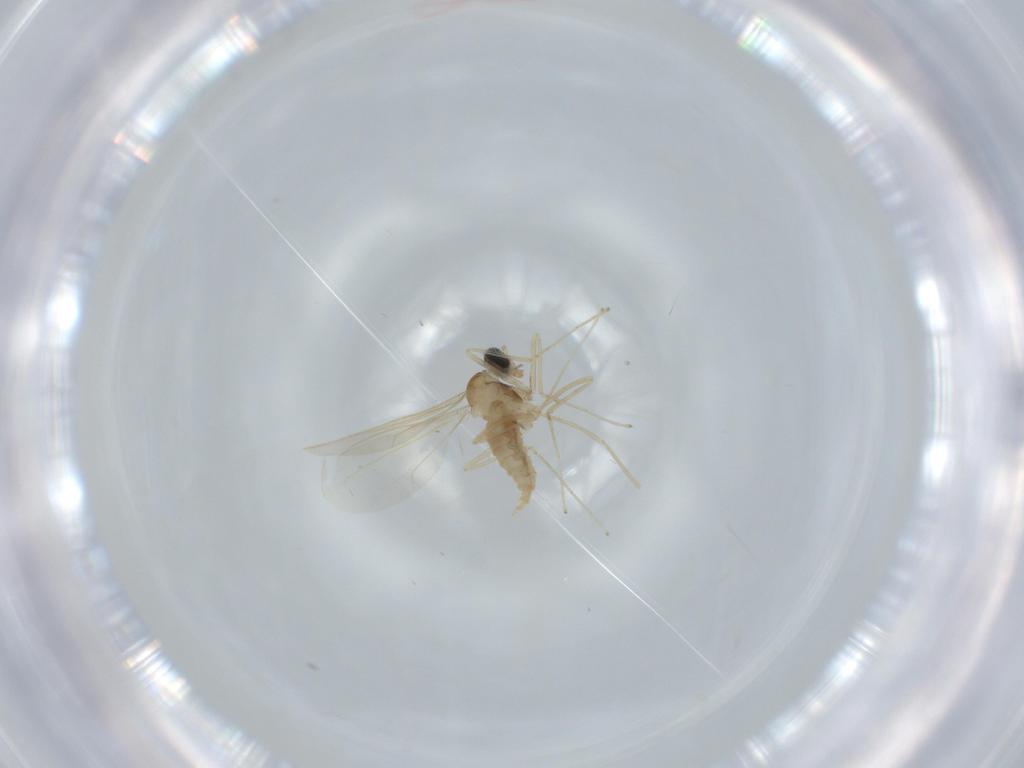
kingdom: Animalia
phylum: Arthropoda
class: Insecta
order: Diptera
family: Cecidomyiidae
